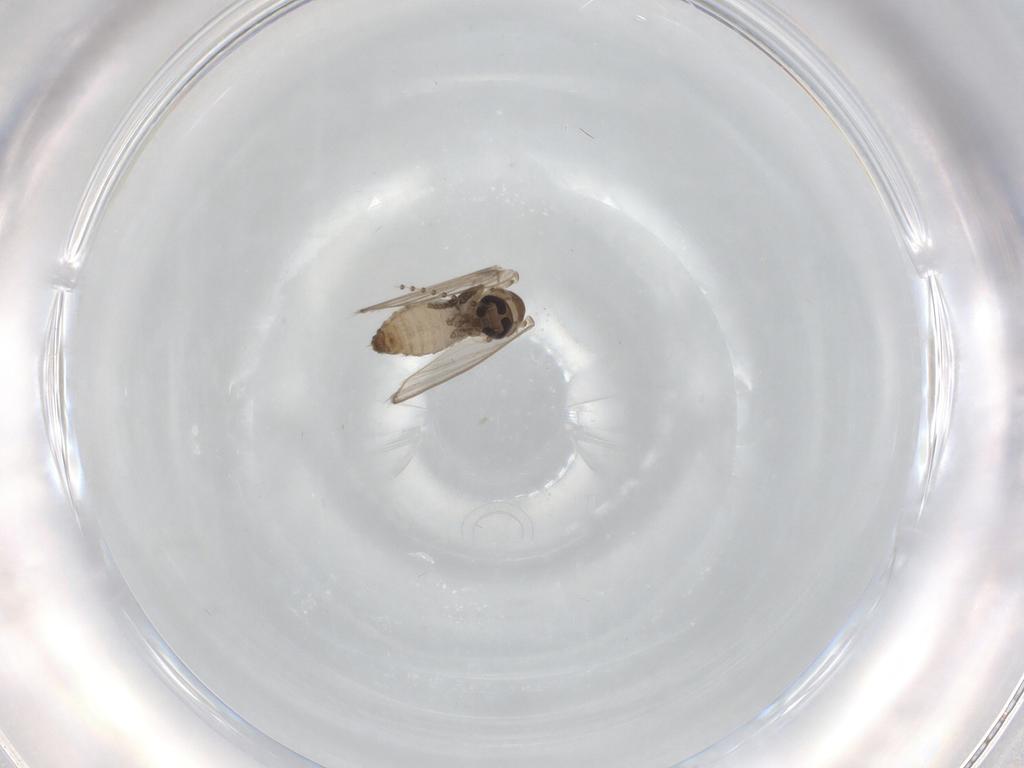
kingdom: Animalia
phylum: Arthropoda
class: Insecta
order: Diptera
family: Psychodidae
